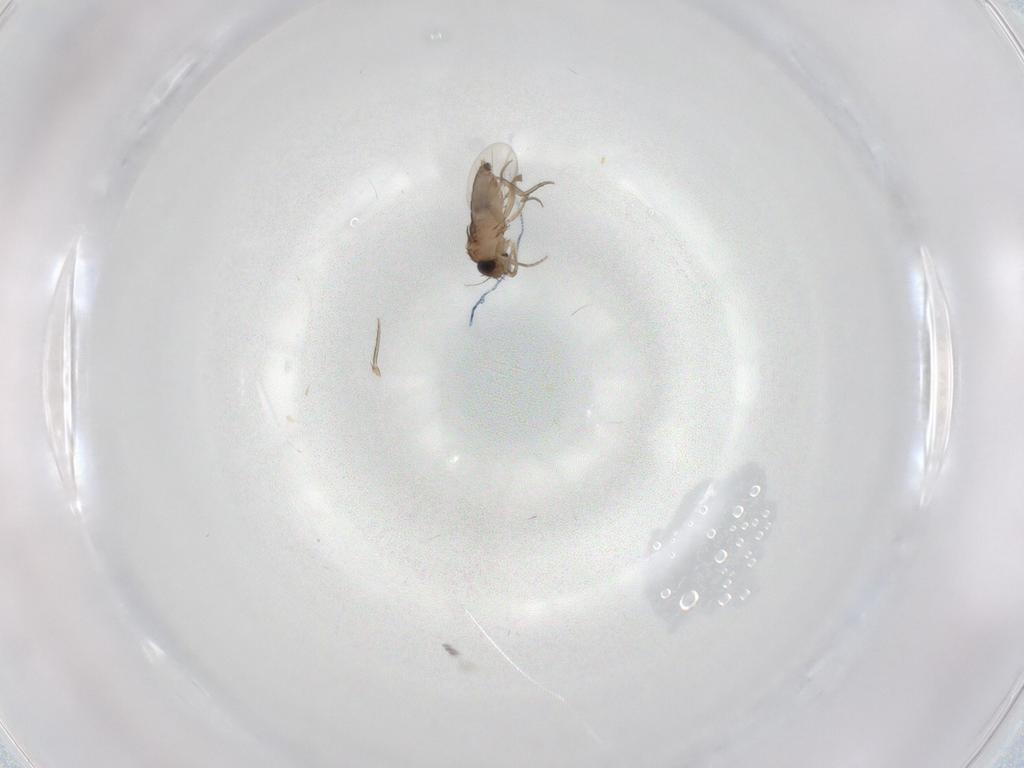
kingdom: Animalia
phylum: Arthropoda
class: Insecta
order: Diptera
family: Phoridae
